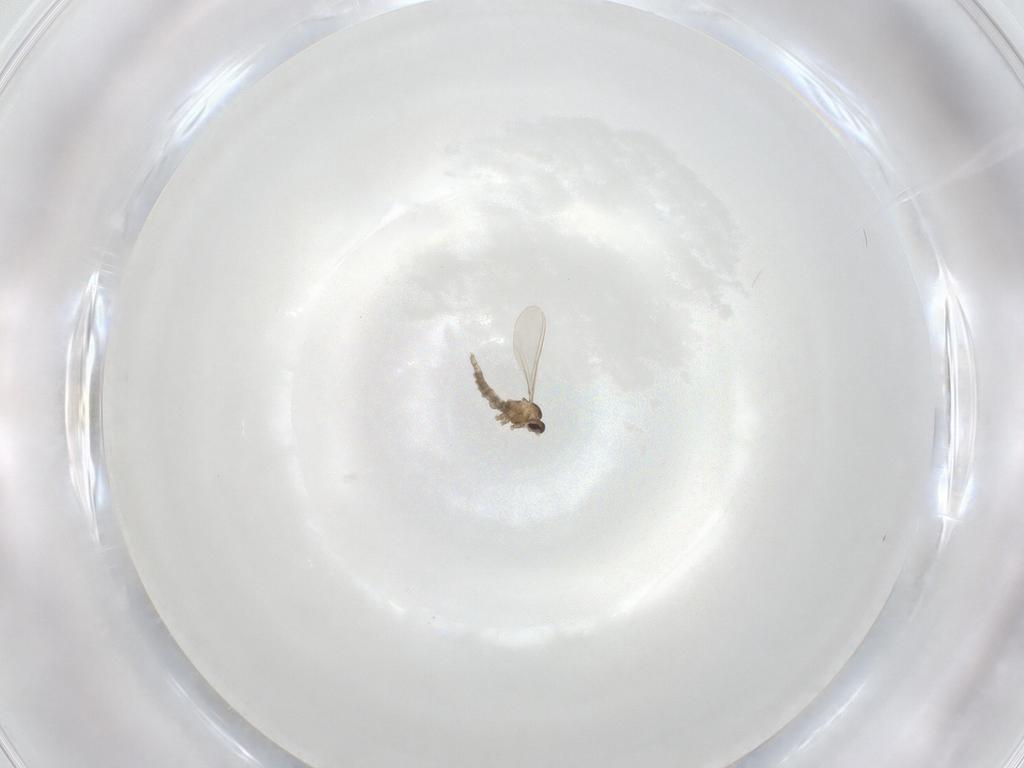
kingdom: Animalia
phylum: Arthropoda
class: Insecta
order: Diptera
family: Cecidomyiidae
